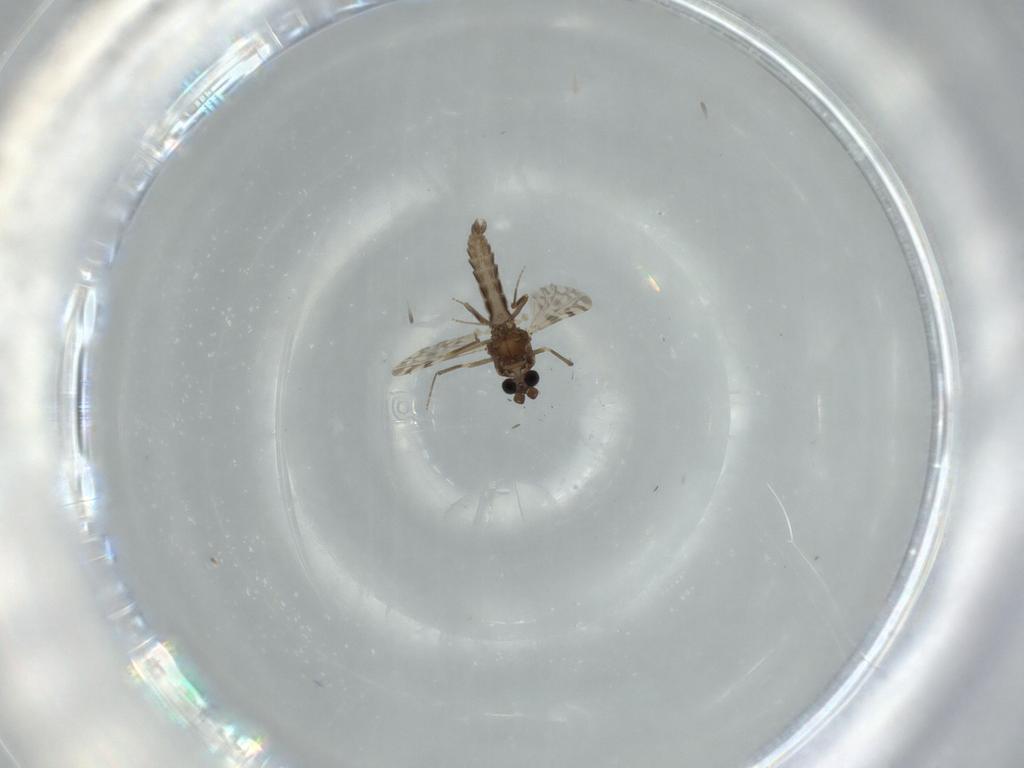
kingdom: Animalia
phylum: Arthropoda
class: Insecta
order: Diptera
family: Ceratopogonidae
